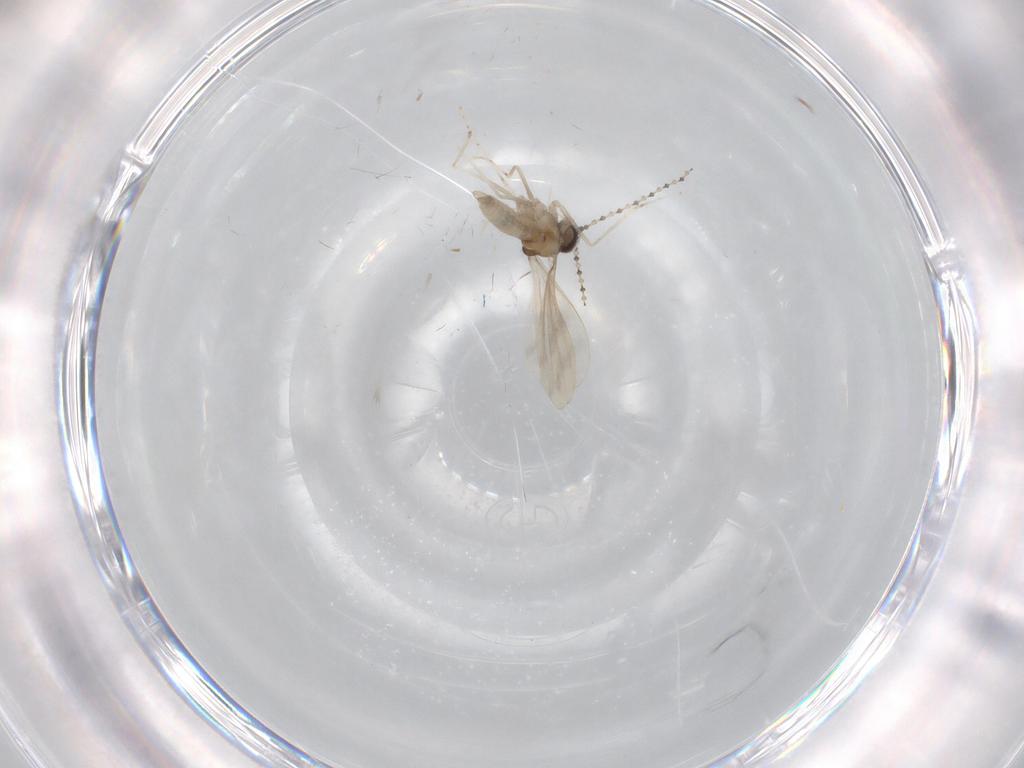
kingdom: Animalia
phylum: Arthropoda
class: Insecta
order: Diptera
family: Cecidomyiidae
